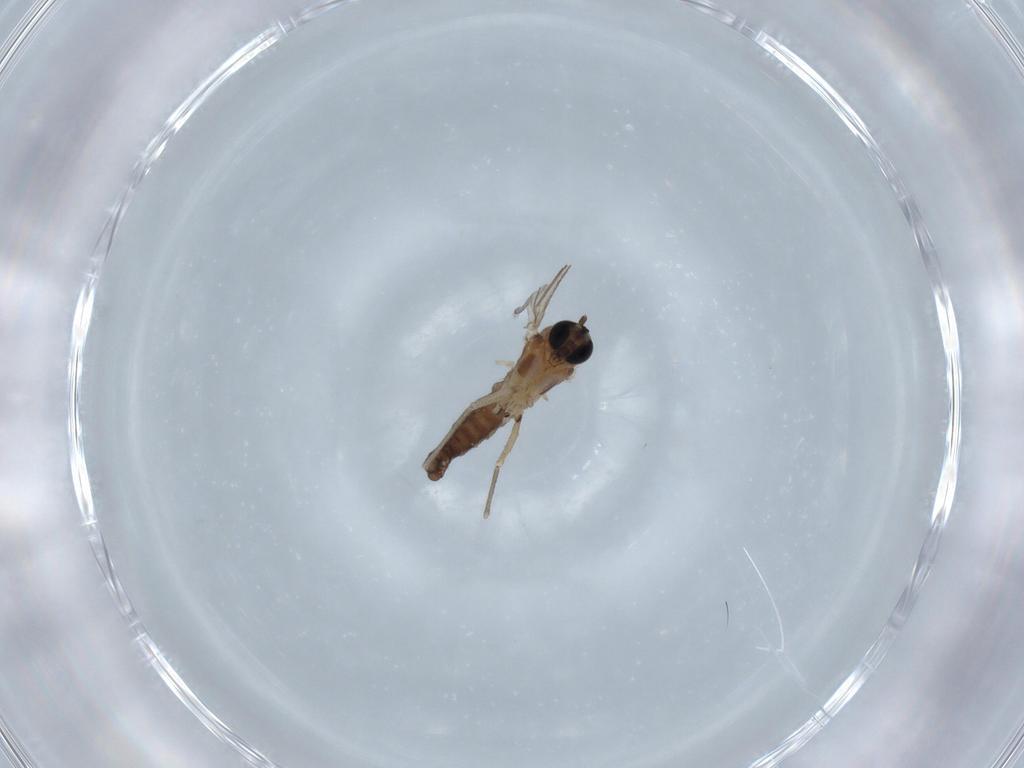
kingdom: Animalia
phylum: Arthropoda
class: Insecta
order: Diptera
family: Sciaridae
